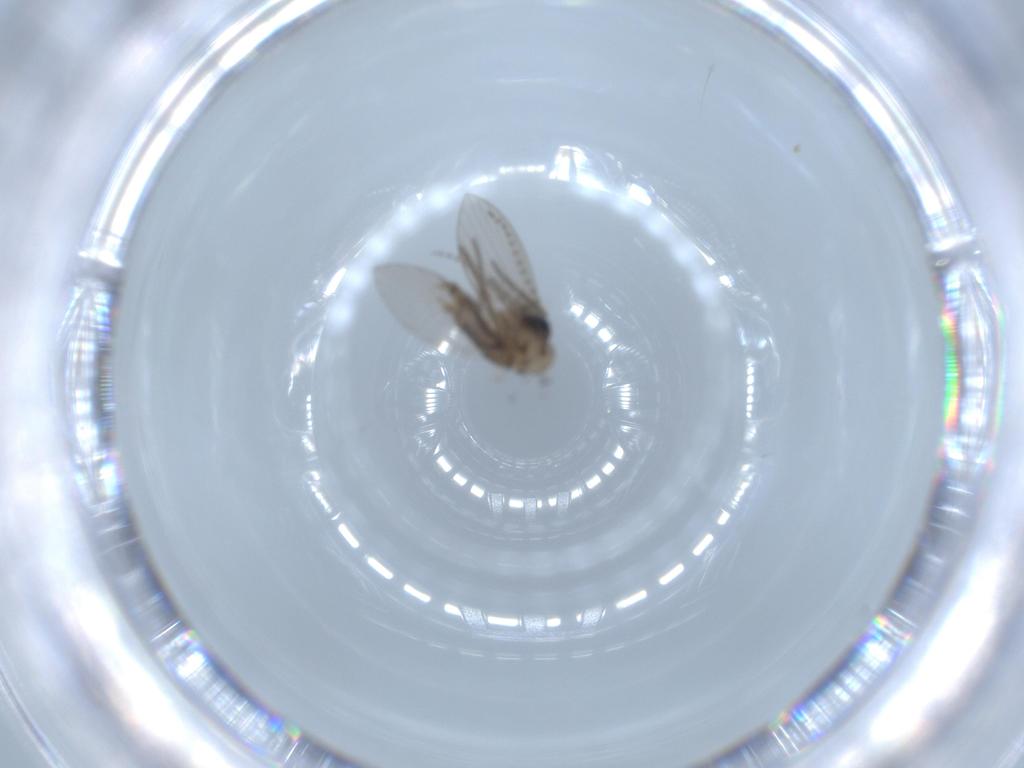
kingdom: Animalia
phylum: Arthropoda
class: Insecta
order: Diptera
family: Psychodidae
